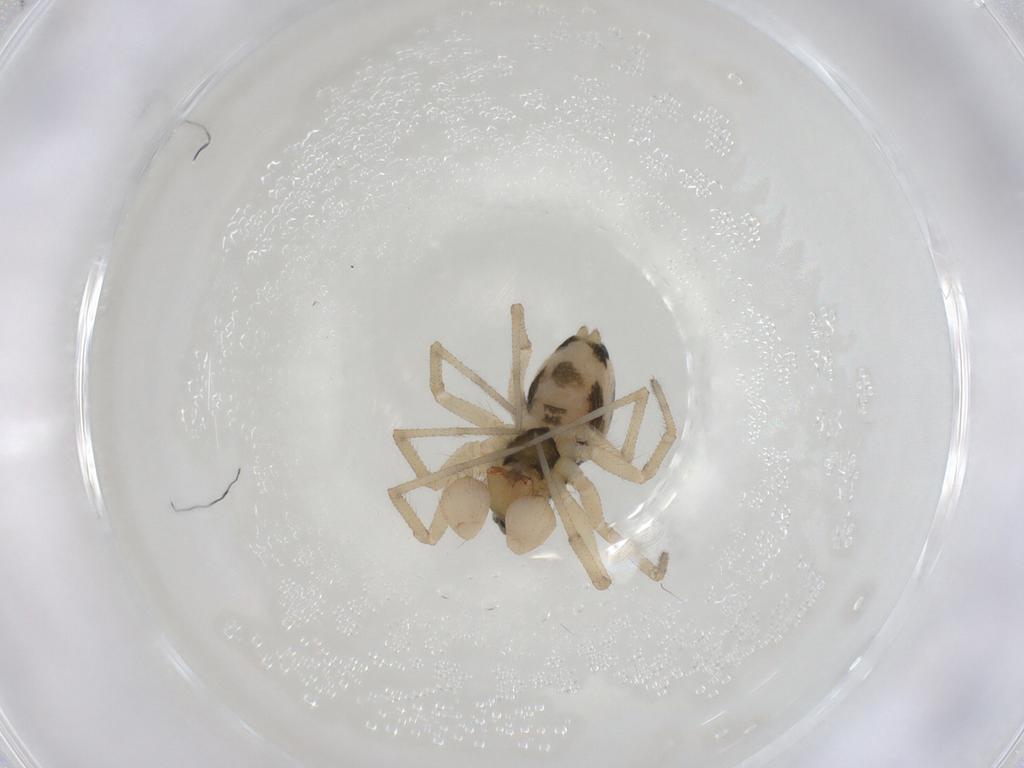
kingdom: Animalia
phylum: Arthropoda
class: Arachnida
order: Araneae
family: Linyphiidae
